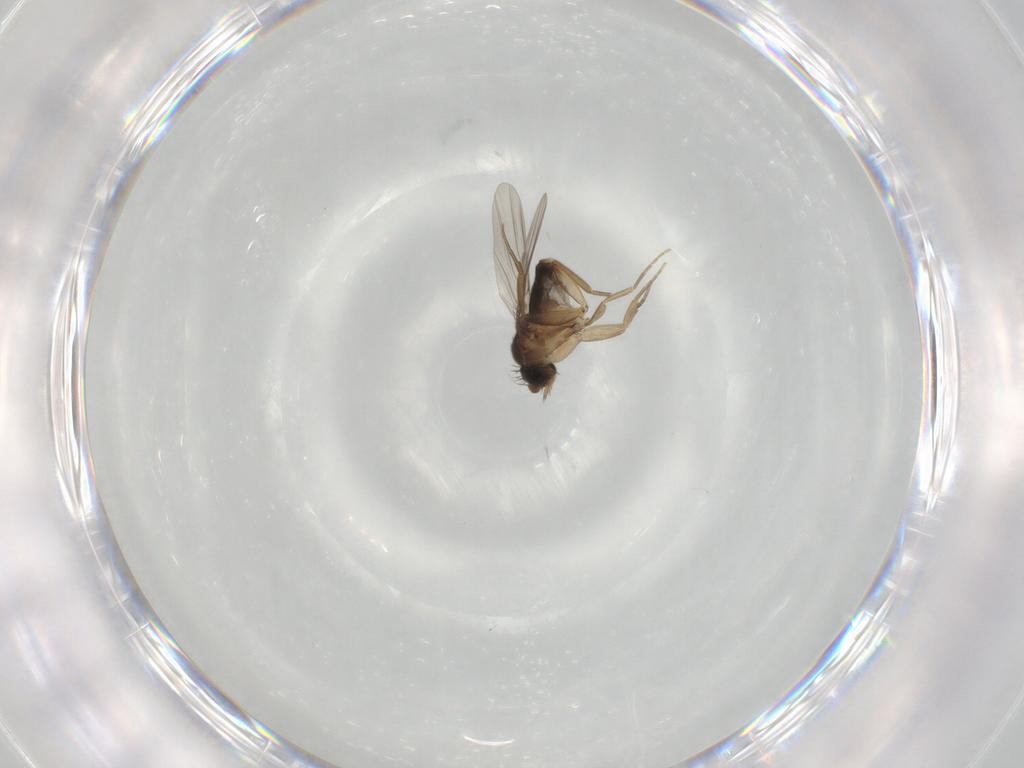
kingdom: Animalia
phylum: Arthropoda
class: Insecta
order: Diptera
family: Phoridae
